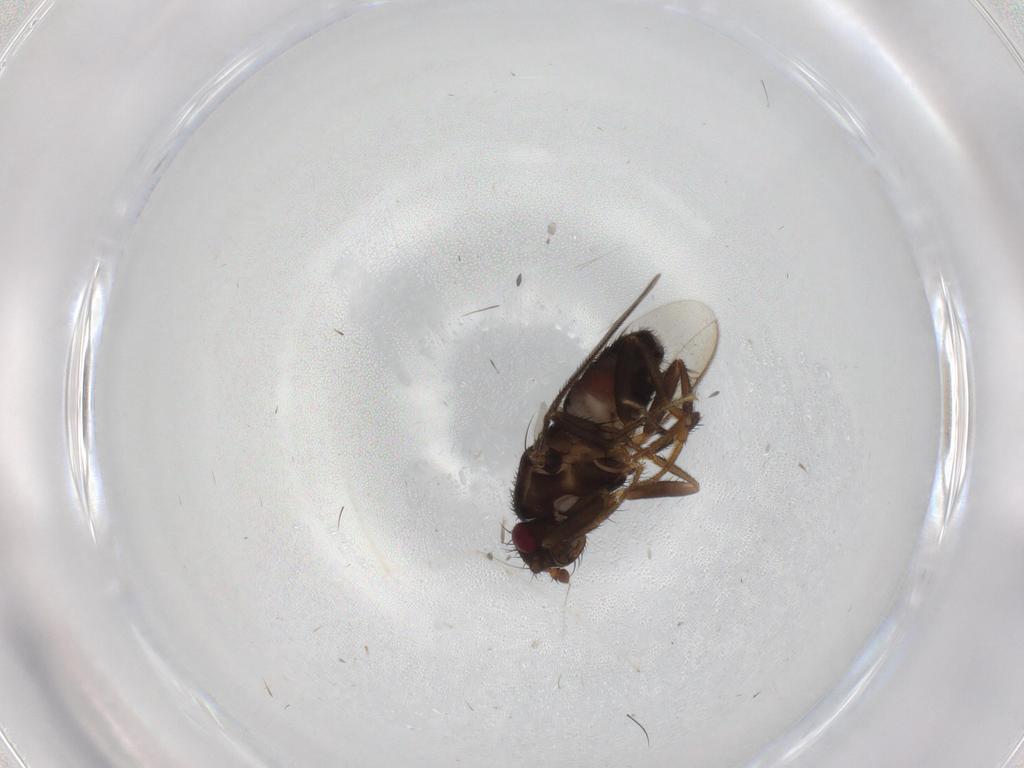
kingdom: Animalia
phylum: Arthropoda
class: Insecta
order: Diptera
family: Sphaeroceridae
